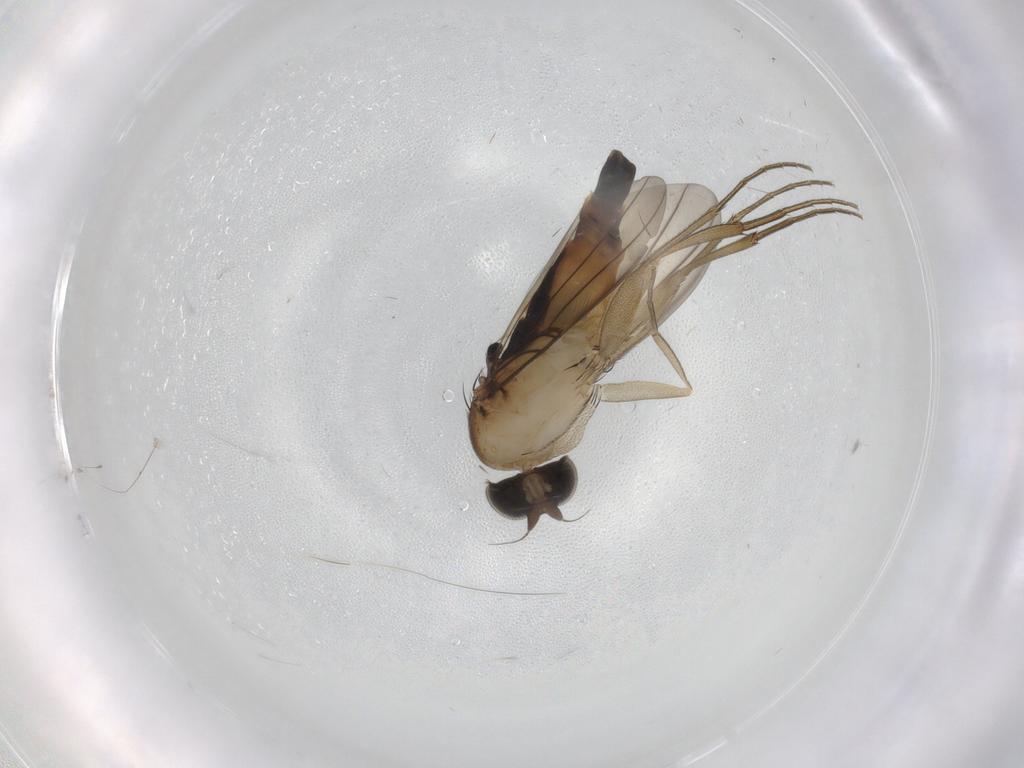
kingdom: Animalia
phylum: Arthropoda
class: Insecta
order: Diptera
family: Phoridae
